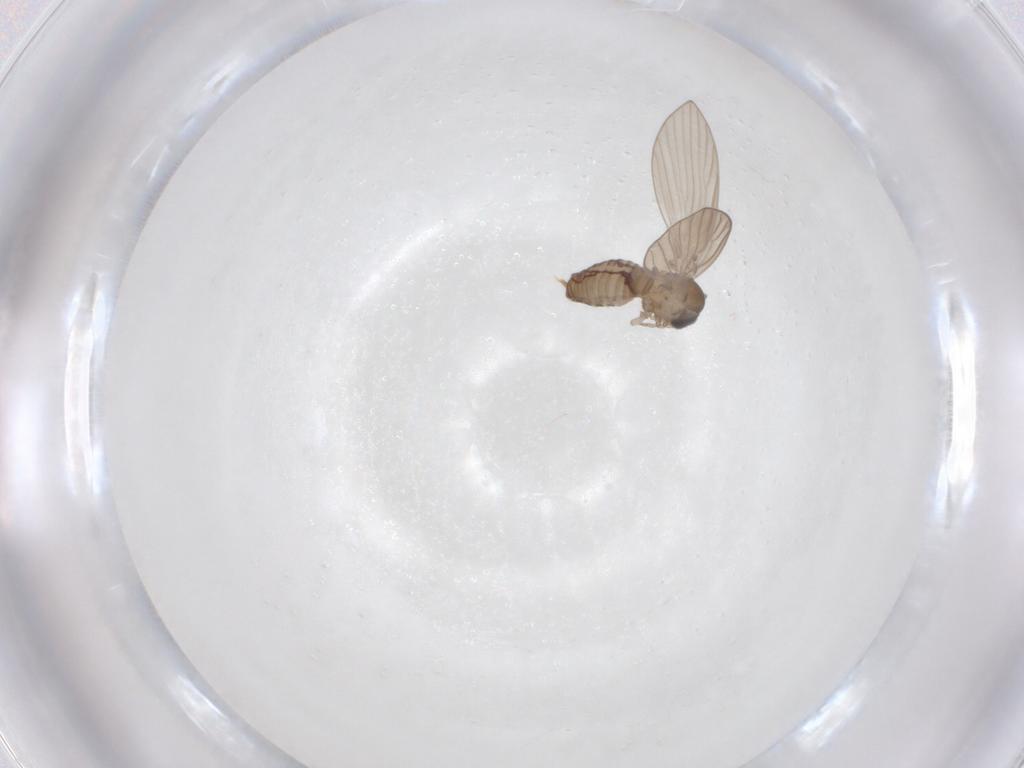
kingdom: Animalia
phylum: Arthropoda
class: Insecta
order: Diptera
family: Psychodidae
